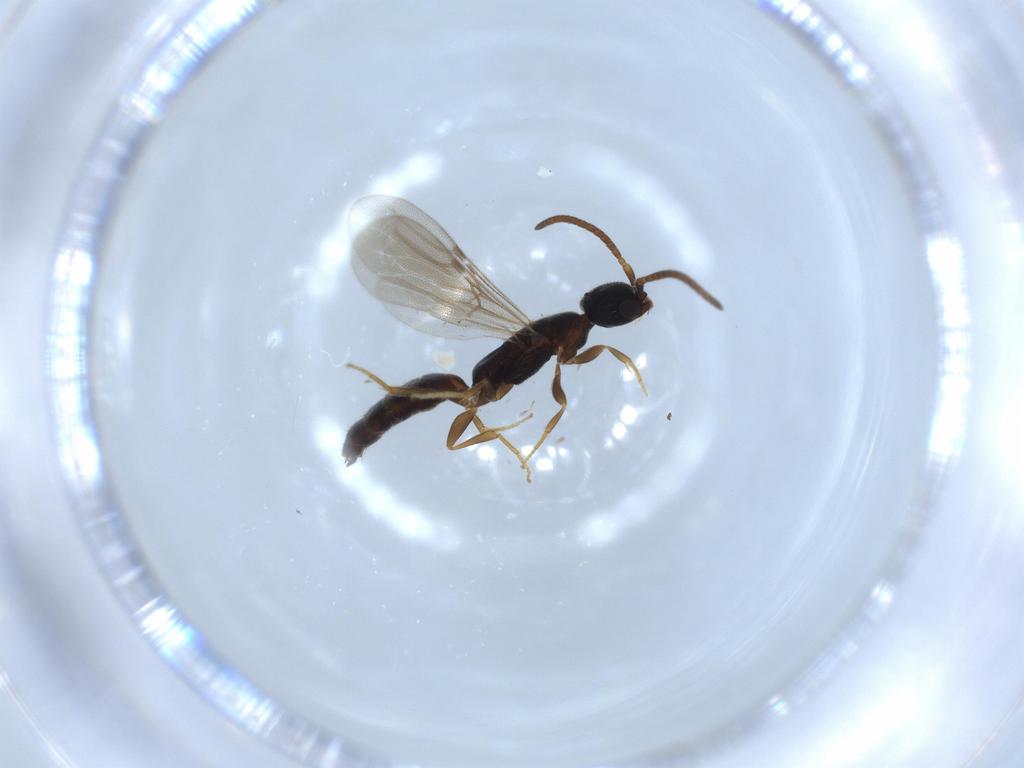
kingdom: Animalia
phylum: Arthropoda
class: Insecta
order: Hymenoptera
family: Bethylidae
